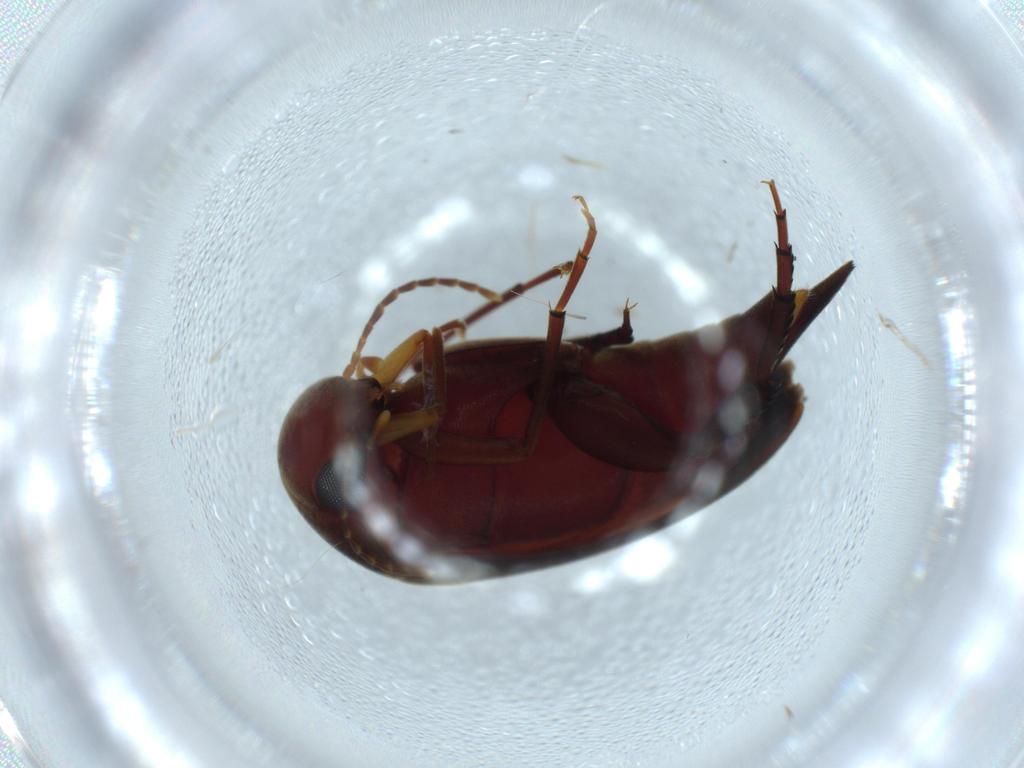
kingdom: Animalia
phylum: Arthropoda
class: Insecta
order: Coleoptera
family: Mordellidae
